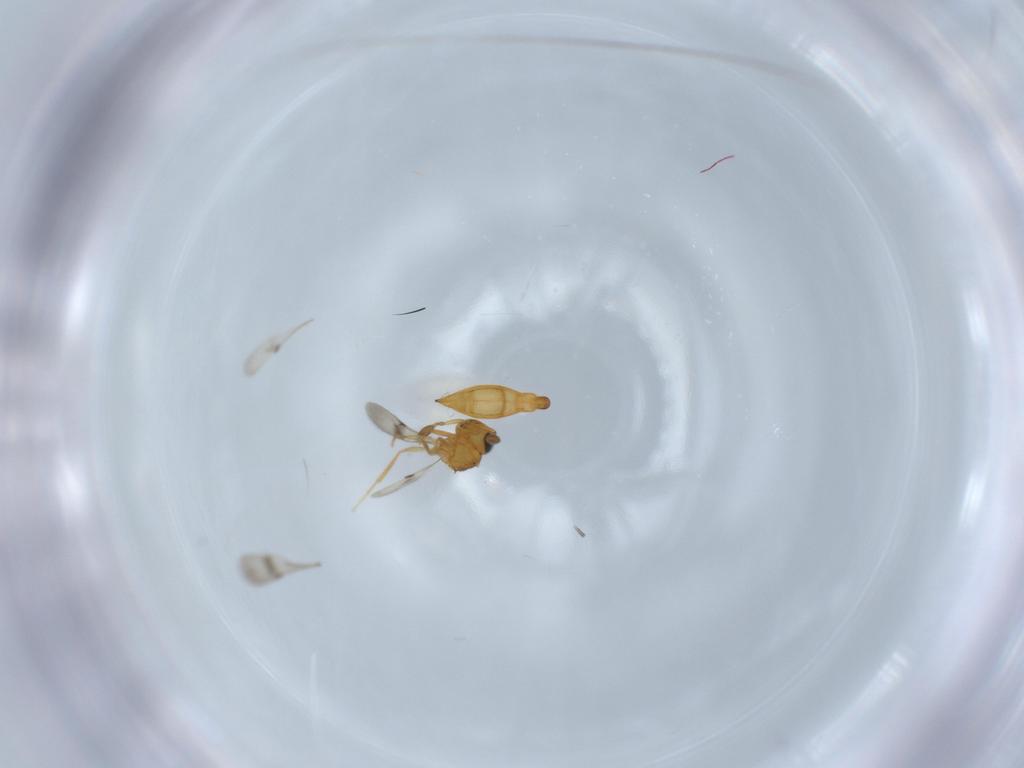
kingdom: Animalia
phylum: Arthropoda
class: Insecta
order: Hymenoptera
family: Scelionidae
